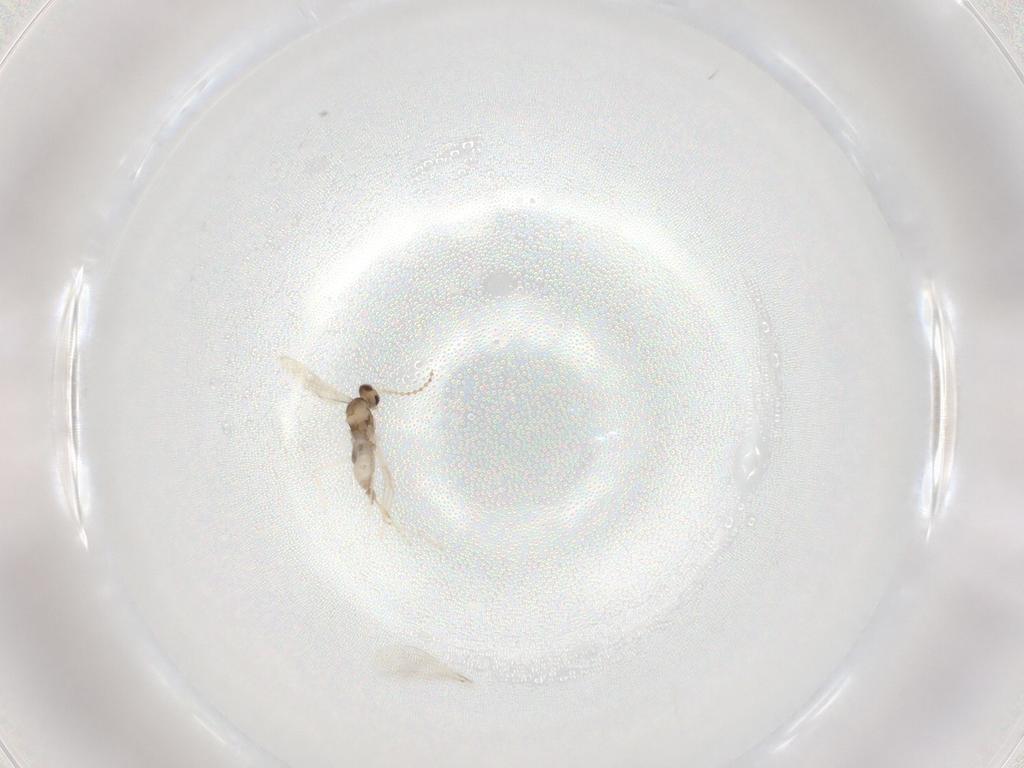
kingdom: Animalia
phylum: Arthropoda
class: Insecta
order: Diptera
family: Cecidomyiidae
